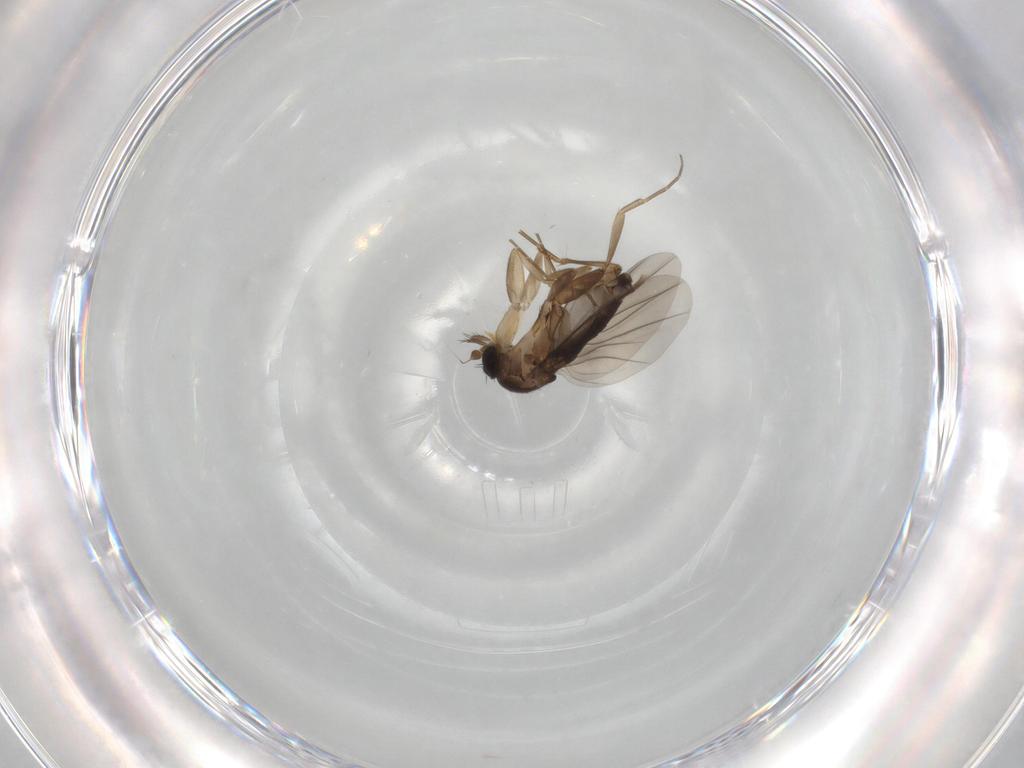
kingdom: Animalia
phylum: Arthropoda
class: Insecta
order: Diptera
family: Phoridae
